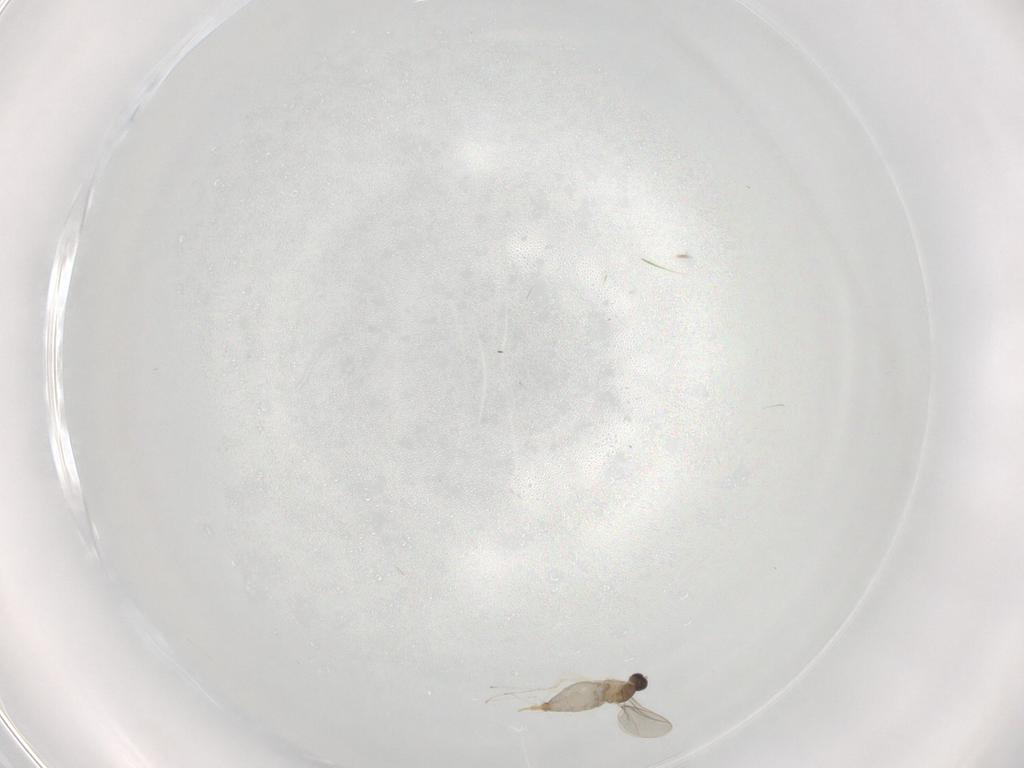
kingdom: Animalia
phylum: Arthropoda
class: Insecta
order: Diptera
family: Cecidomyiidae
